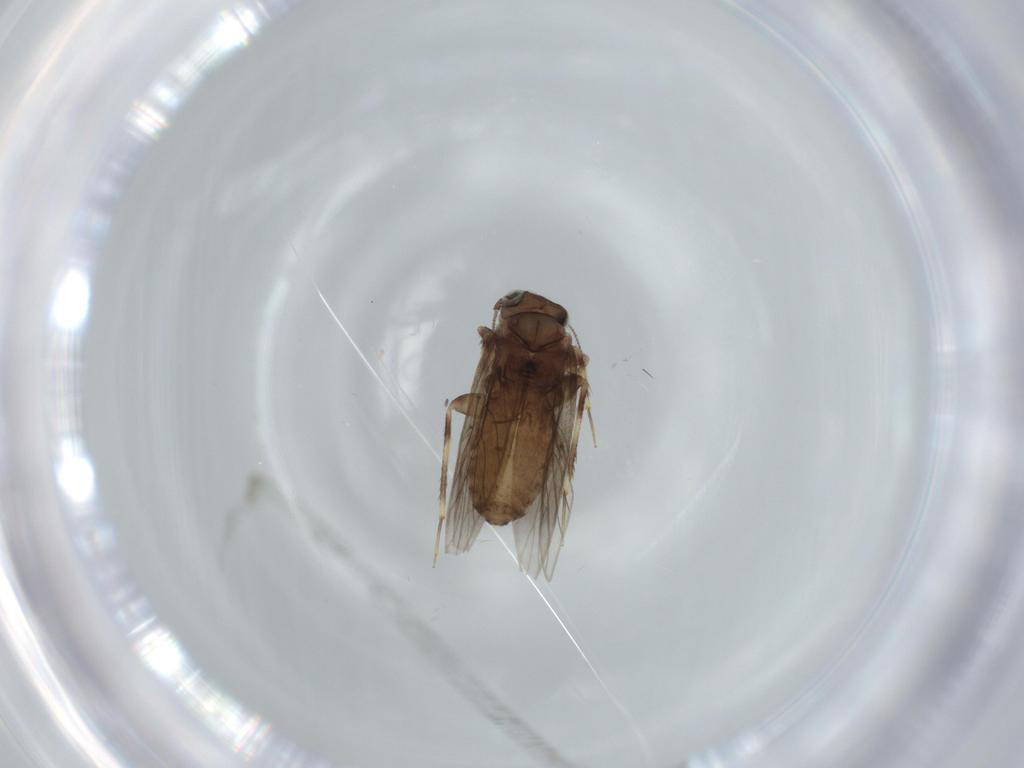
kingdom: Animalia
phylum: Arthropoda
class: Insecta
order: Psocodea
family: Lepidopsocidae
